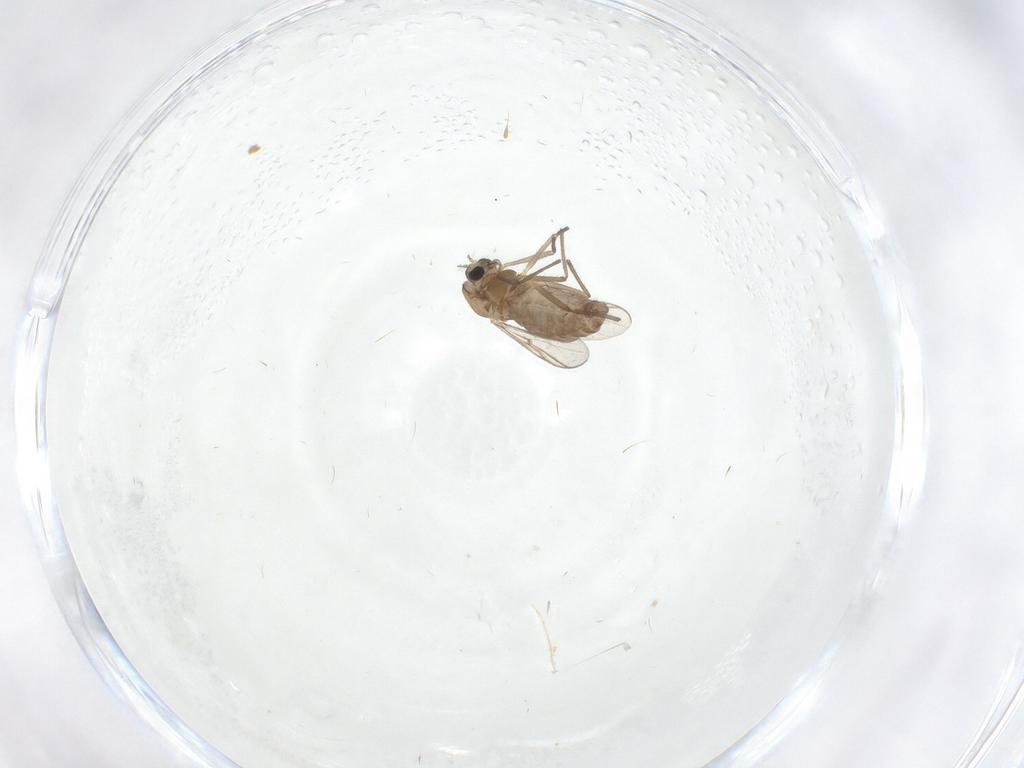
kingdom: Animalia
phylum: Arthropoda
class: Insecta
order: Diptera
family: Chironomidae
